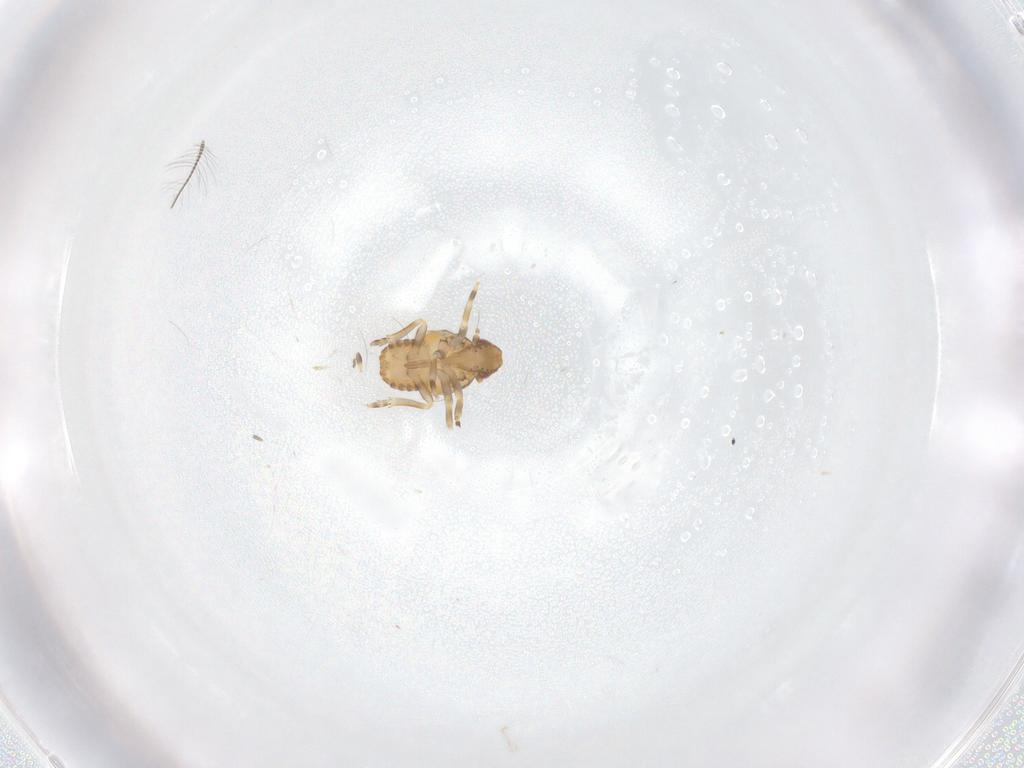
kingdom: Animalia
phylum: Arthropoda
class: Insecta
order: Hemiptera
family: Flatidae
